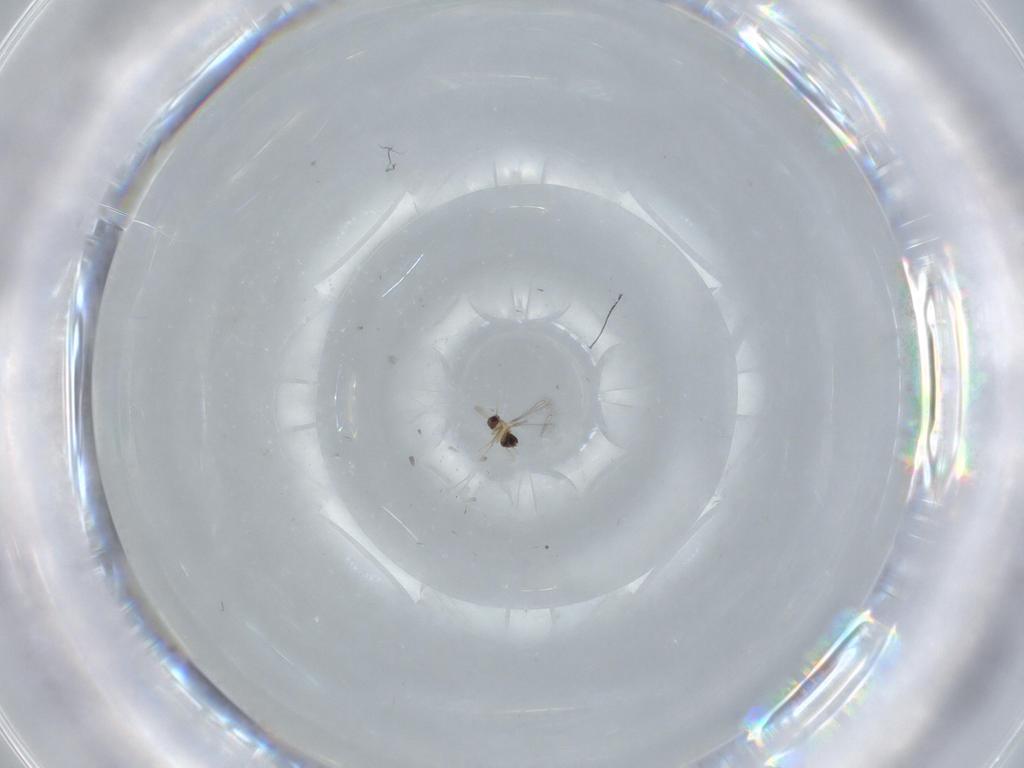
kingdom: Animalia
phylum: Arthropoda
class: Insecta
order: Hymenoptera
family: Mymaridae
